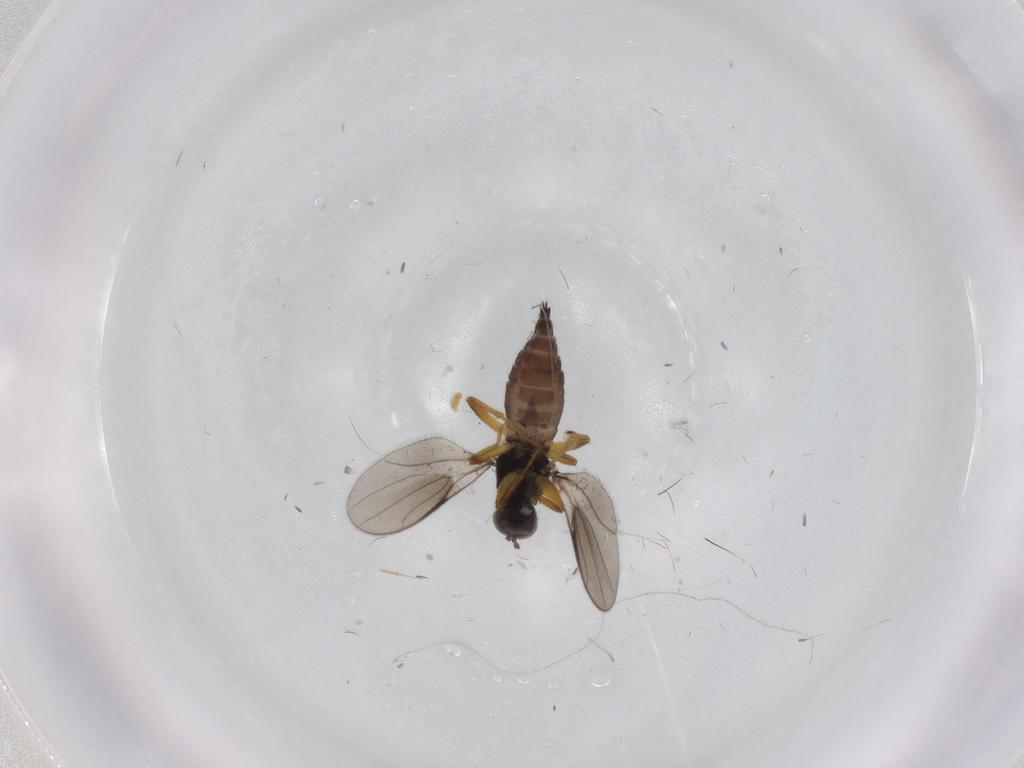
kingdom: Animalia
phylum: Arthropoda
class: Insecta
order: Diptera
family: Hybotidae
